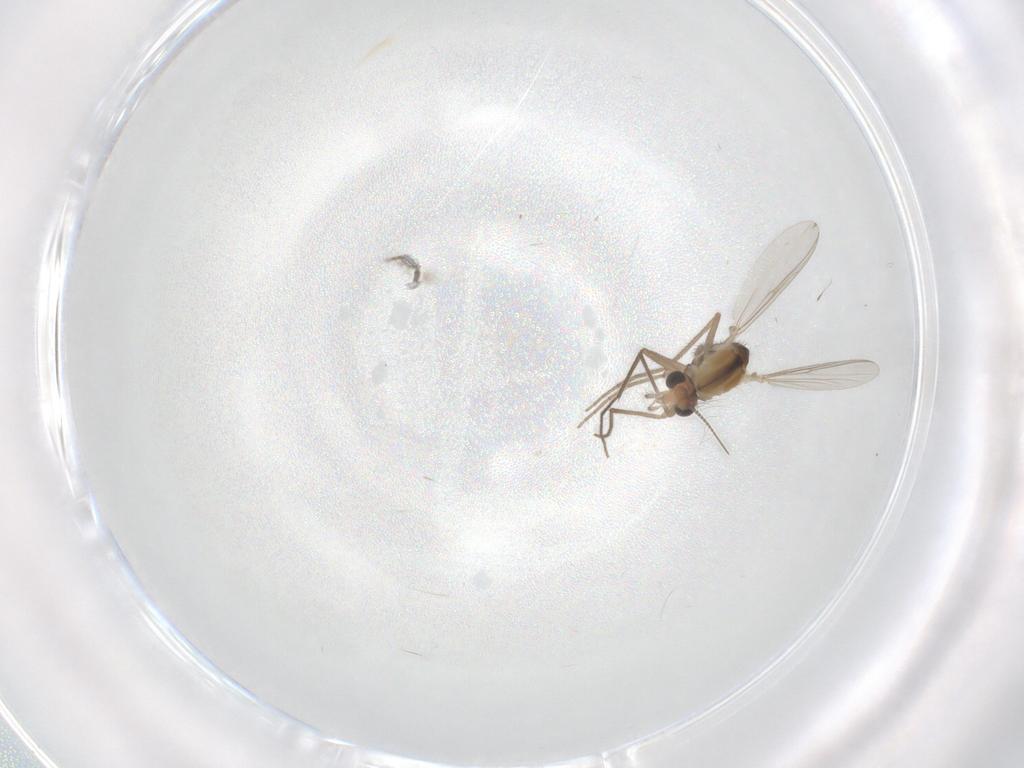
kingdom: Animalia
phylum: Arthropoda
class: Insecta
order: Diptera
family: Chironomidae
